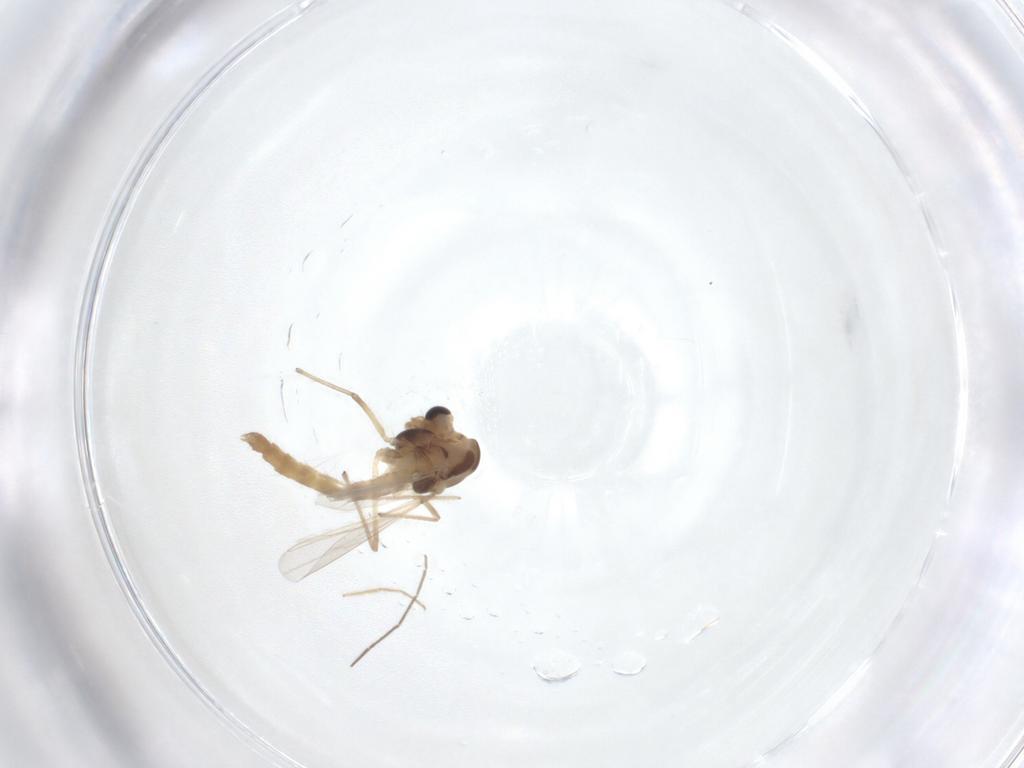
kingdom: Animalia
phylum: Arthropoda
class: Insecta
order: Diptera
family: Chironomidae
